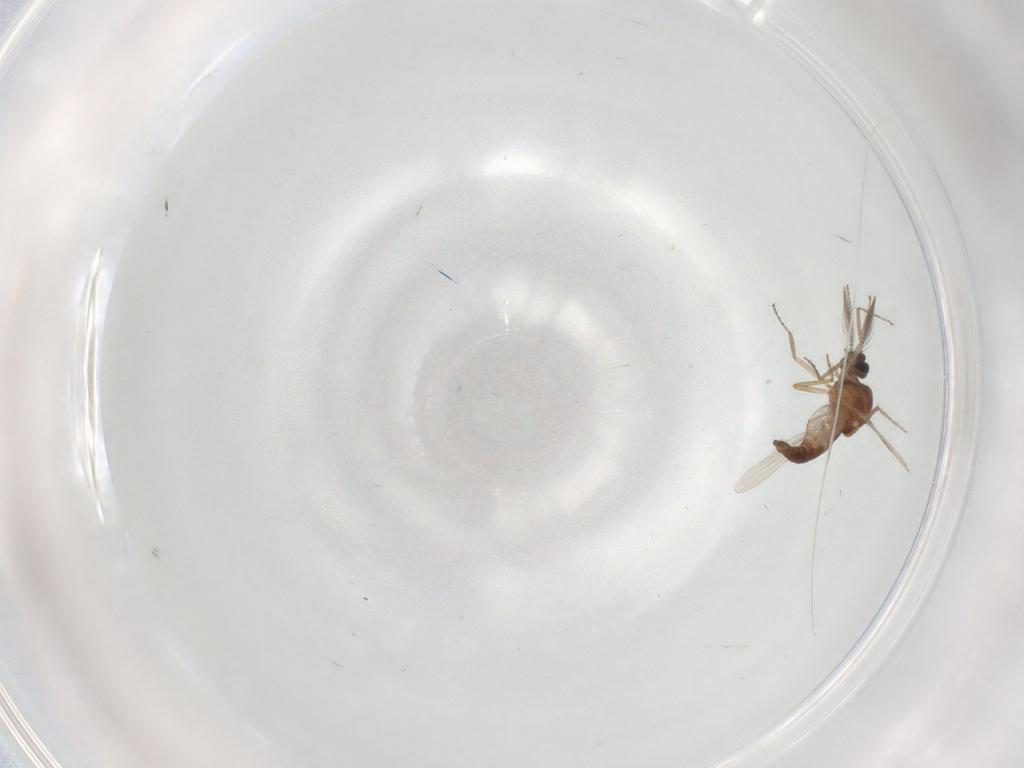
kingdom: Animalia
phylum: Arthropoda
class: Insecta
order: Diptera
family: Ceratopogonidae
